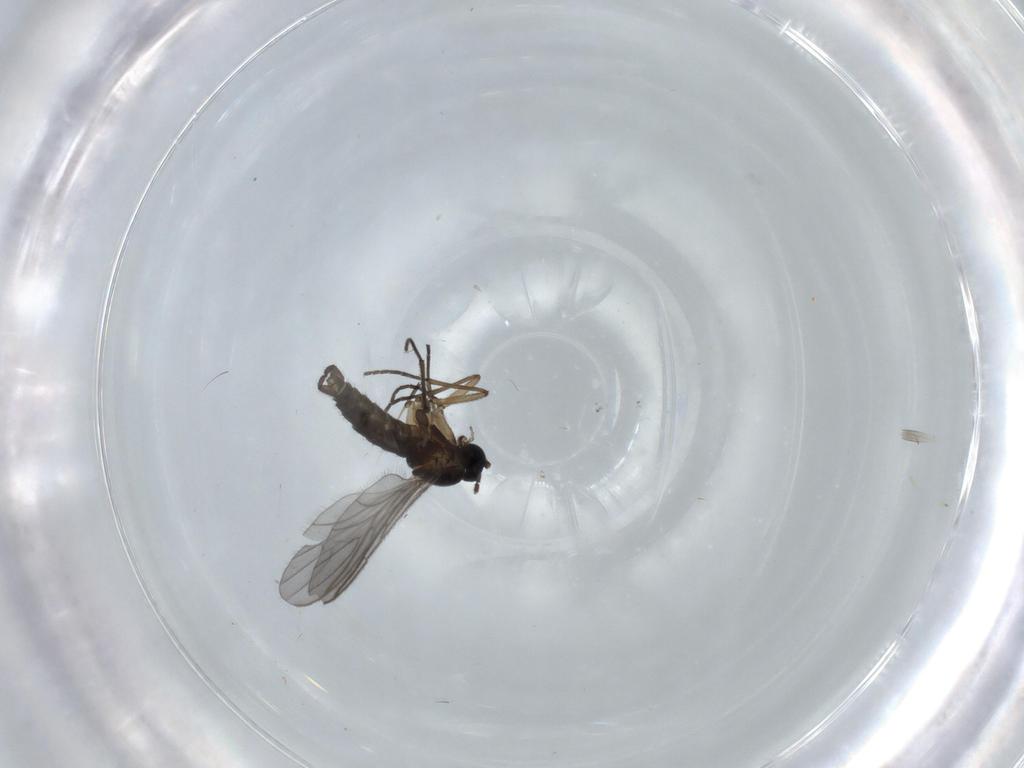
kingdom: Animalia
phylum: Arthropoda
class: Insecta
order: Diptera
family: Sciaridae
